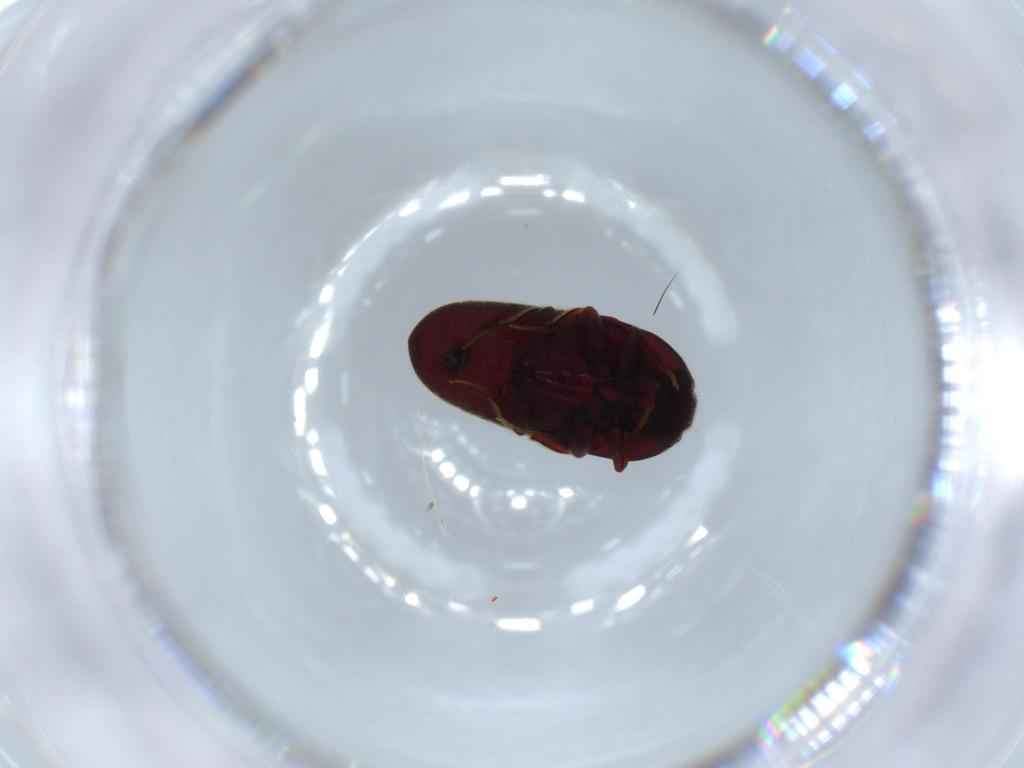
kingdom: Animalia
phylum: Arthropoda
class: Insecta
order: Coleoptera
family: Throscidae
